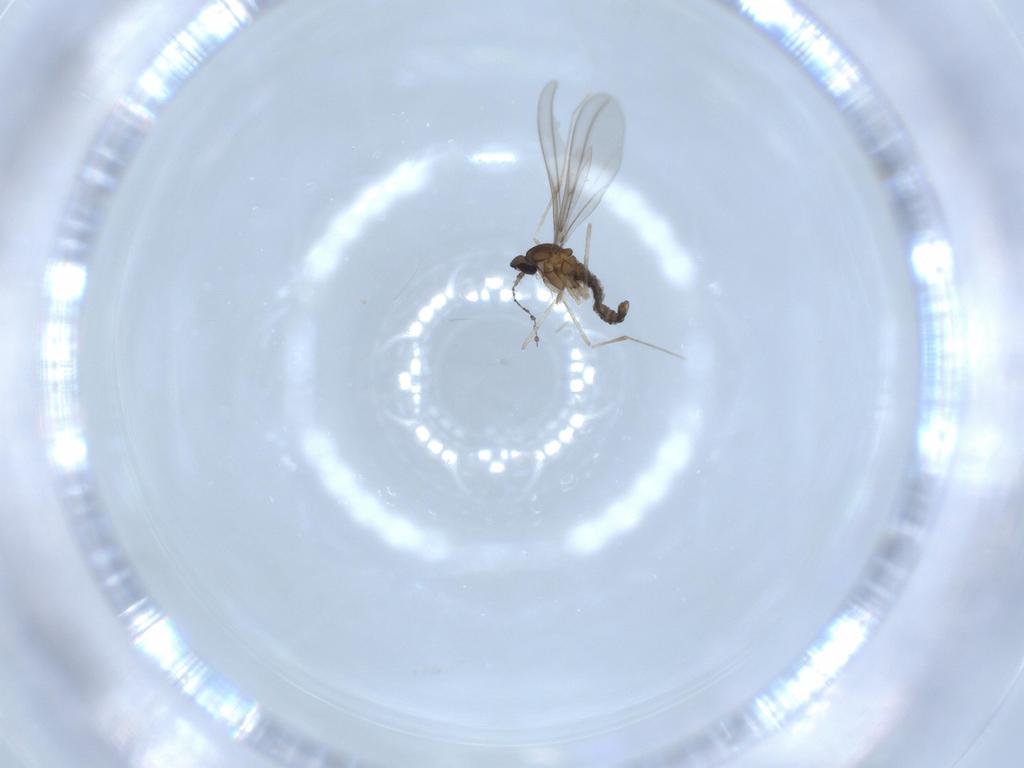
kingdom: Animalia
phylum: Arthropoda
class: Insecta
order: Diptera
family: Cecidomyiidae
